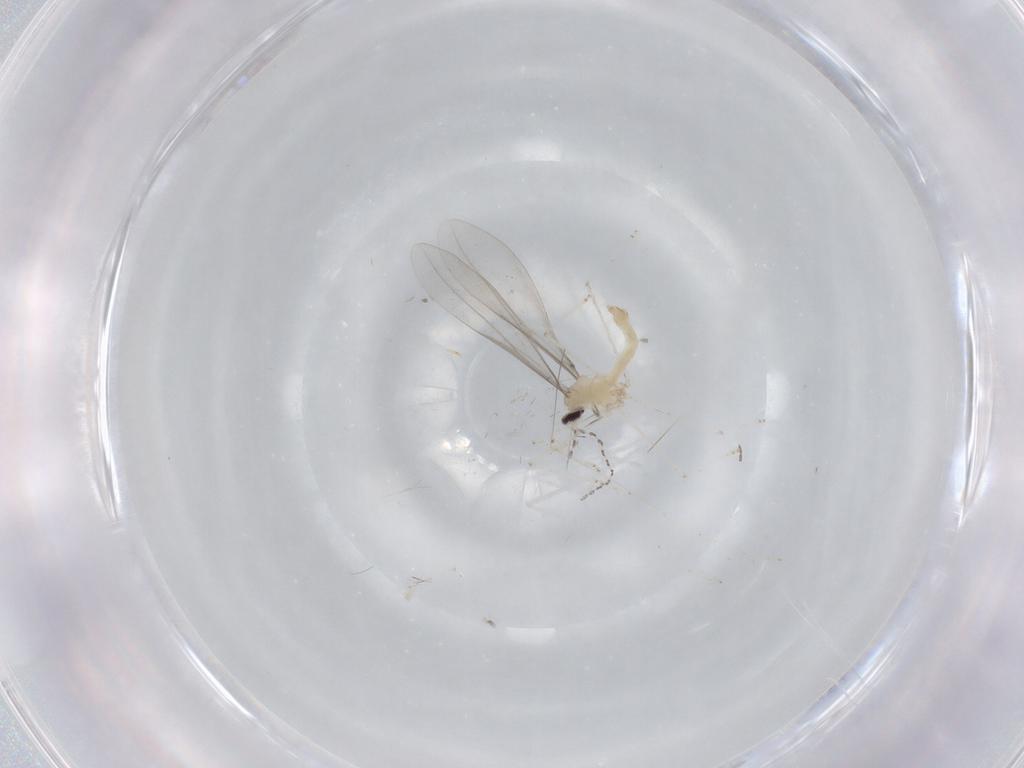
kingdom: Animalia
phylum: Arthropoda
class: Insecta
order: Diptera
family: Cecidomyiidae
